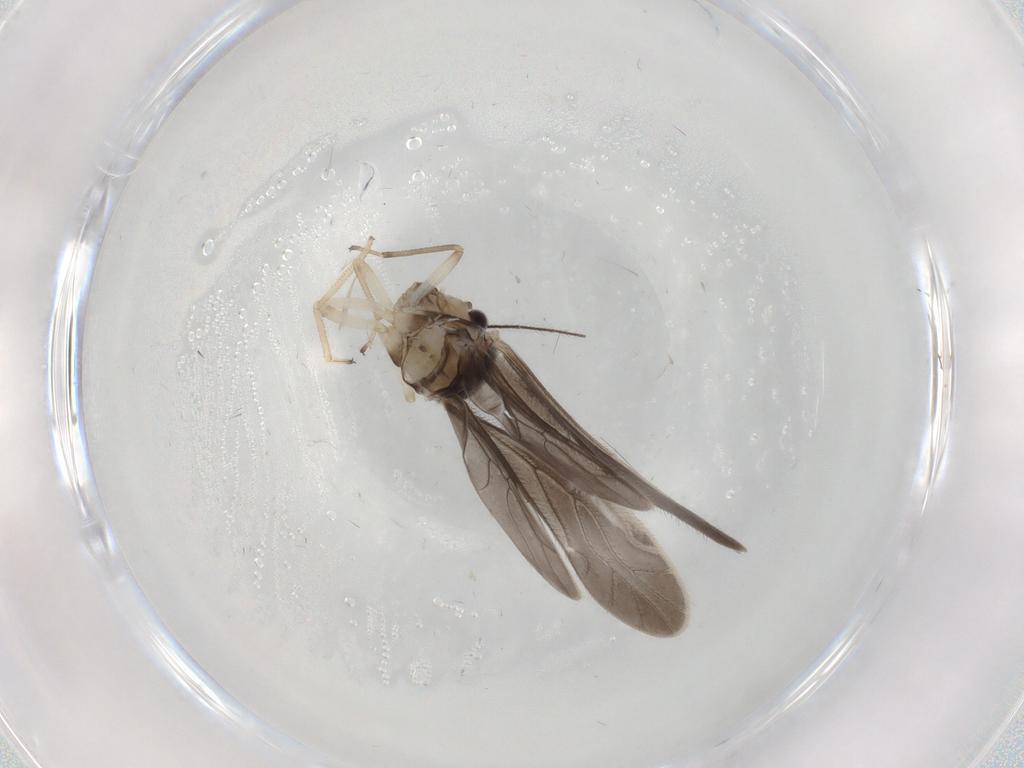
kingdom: Animalia
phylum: Arthropoda
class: Insecta
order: Psocodea
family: Caeciliusidae
